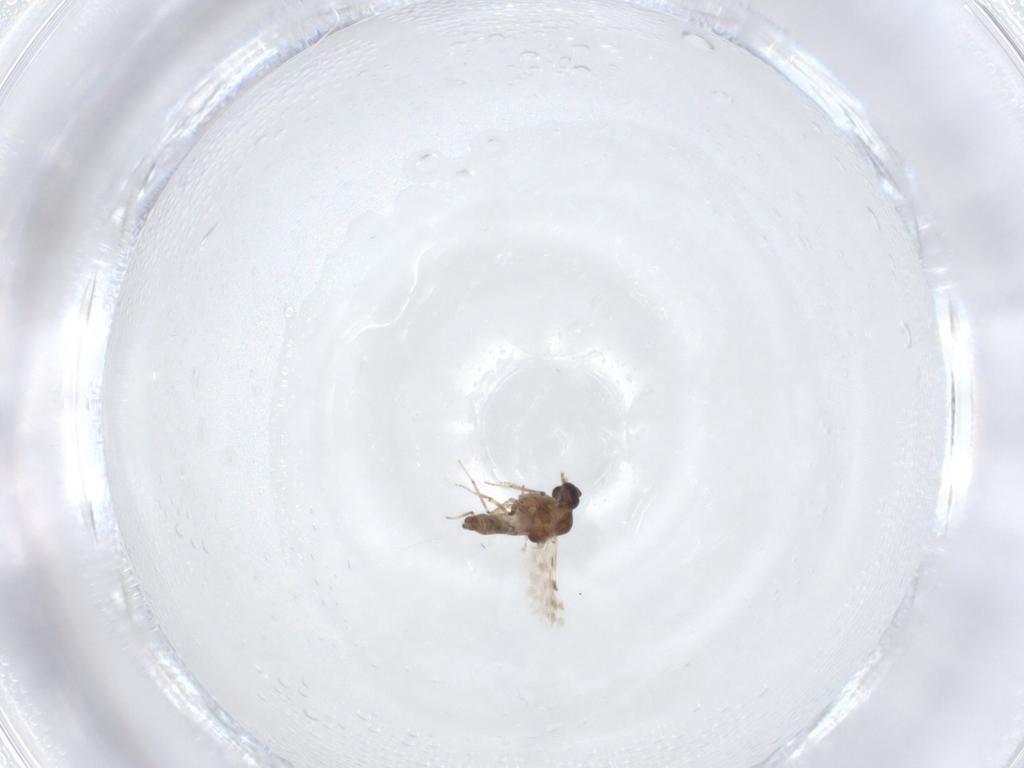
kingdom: Animalia
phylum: Arthropoda
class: Insecta
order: Diptera
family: Ceratopogonidae
